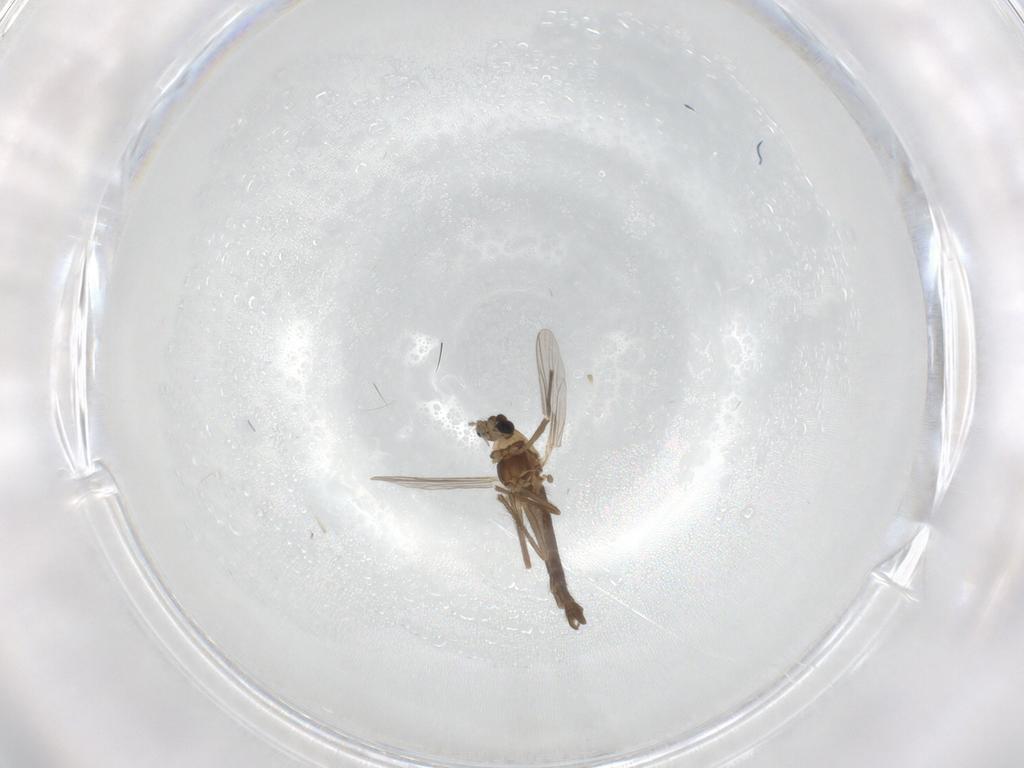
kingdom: Animalia
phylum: Arthropoda
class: Insecta
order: Diptera
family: Chironomidae
